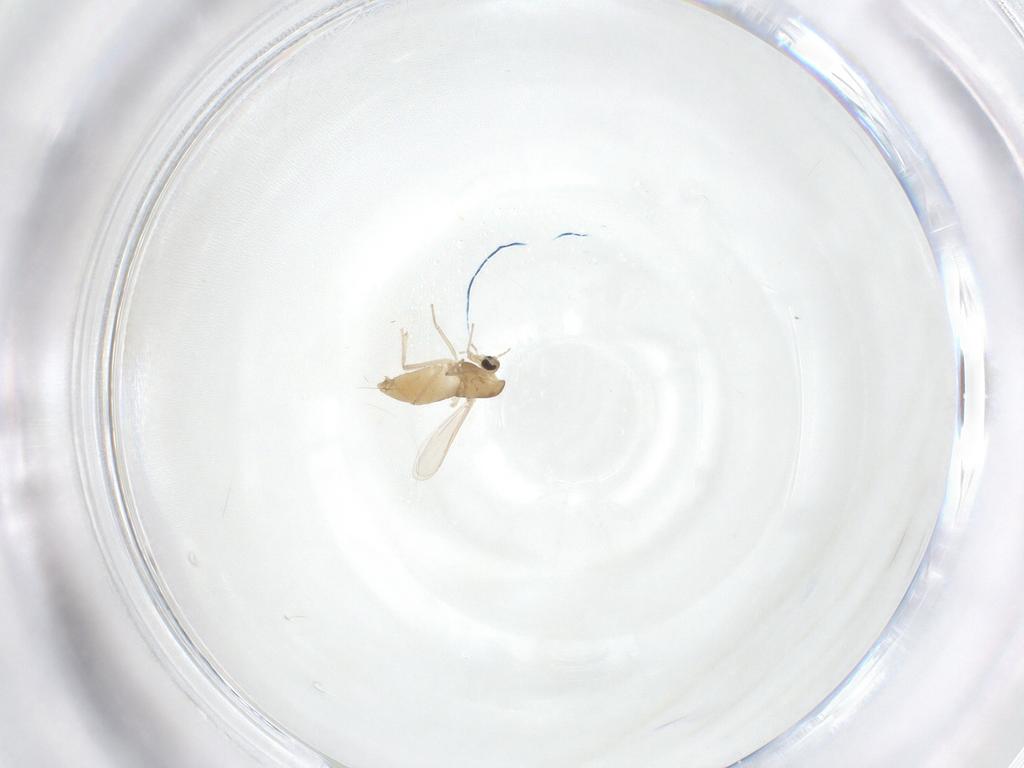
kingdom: Animalia
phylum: Arthropoda
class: Insecta
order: Diptera
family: Chironomidae
